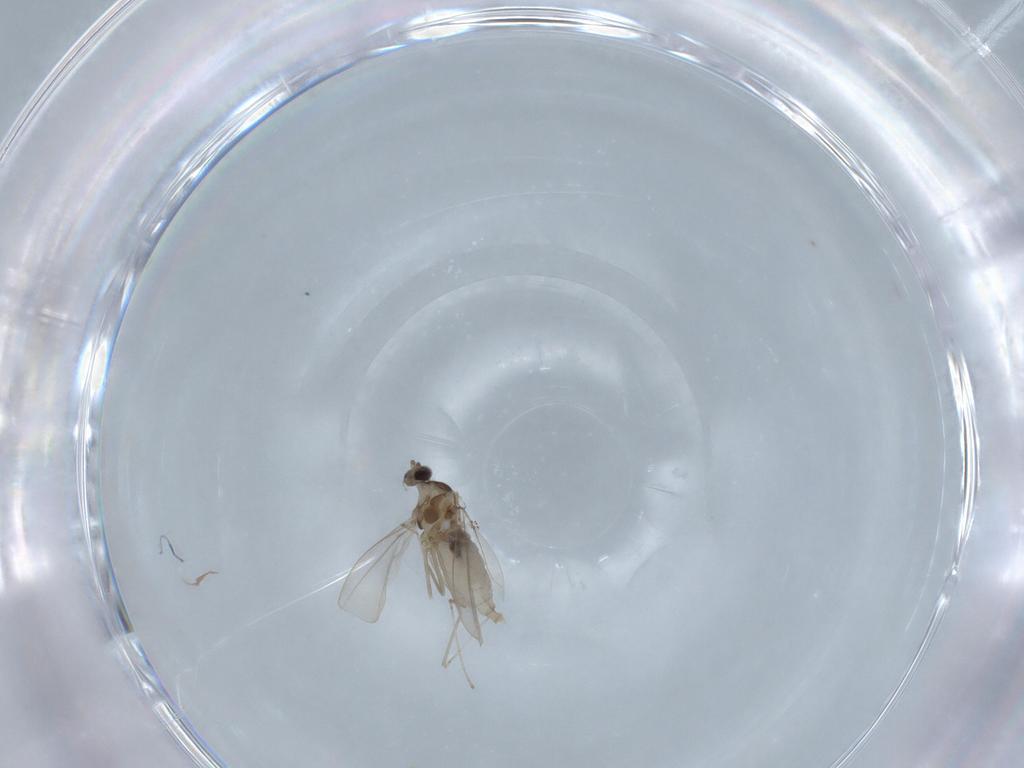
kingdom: Animalia
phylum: Arthropoda
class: Insecta
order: Diptera
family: Cecidomyiidae
